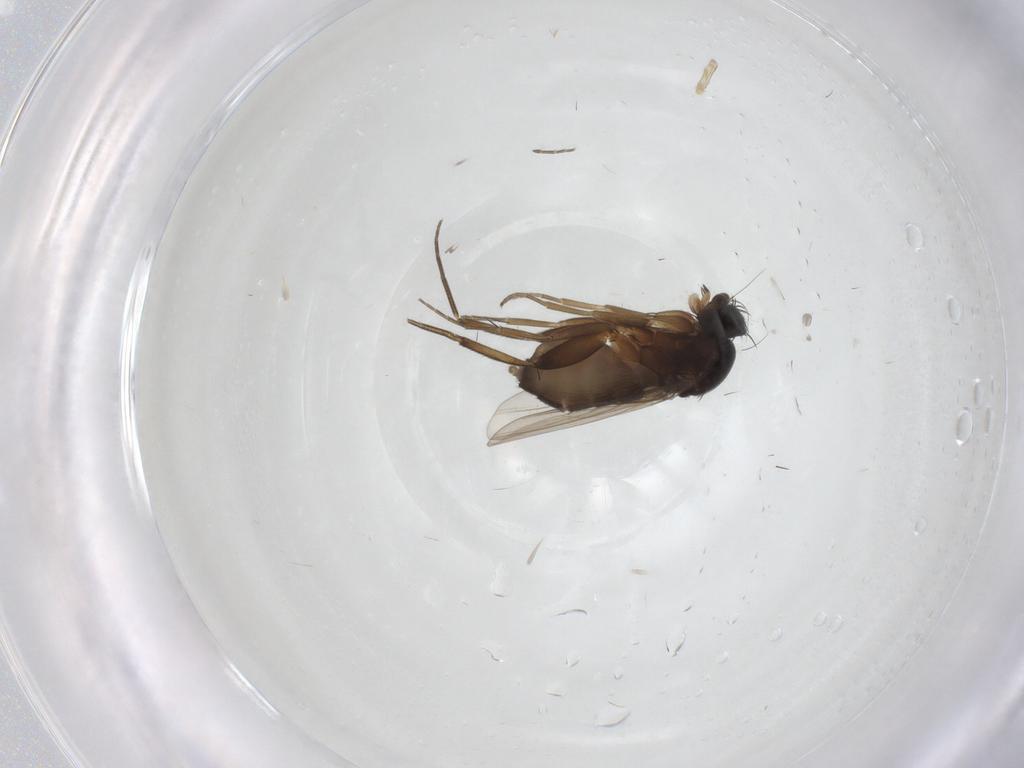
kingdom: Animalia
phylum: Arthropoda
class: Insecta
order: Diptera
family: Phoridae
